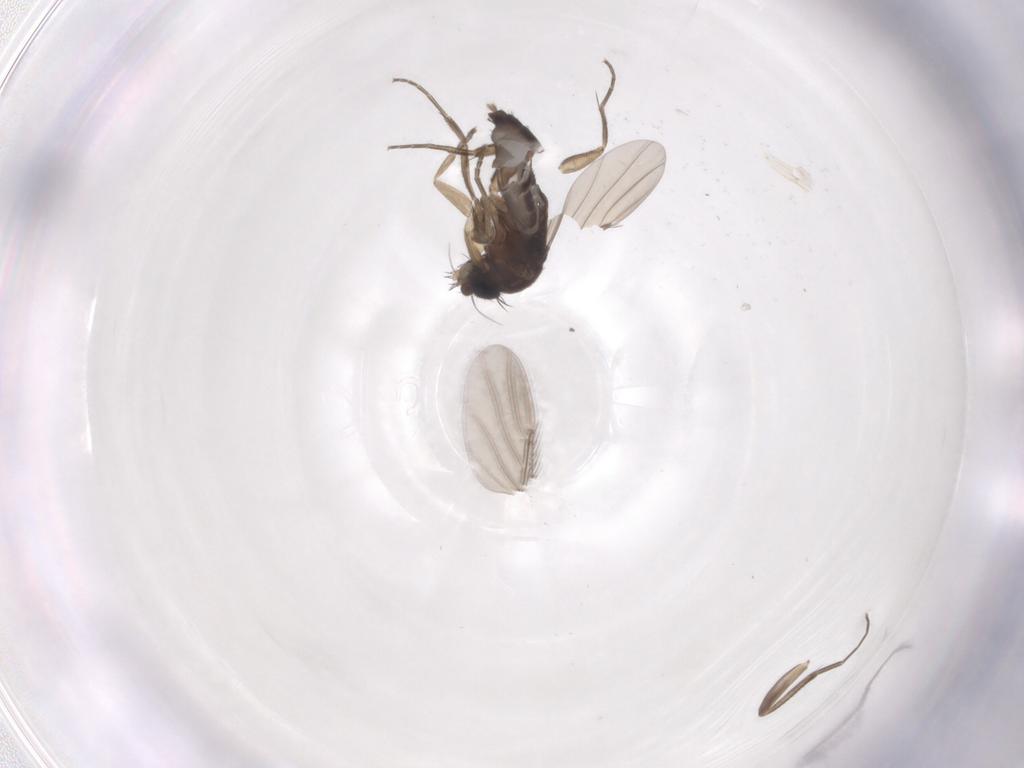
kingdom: Animalia
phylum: Arthropoda
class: Insecta
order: Diptera
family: Phoridae
